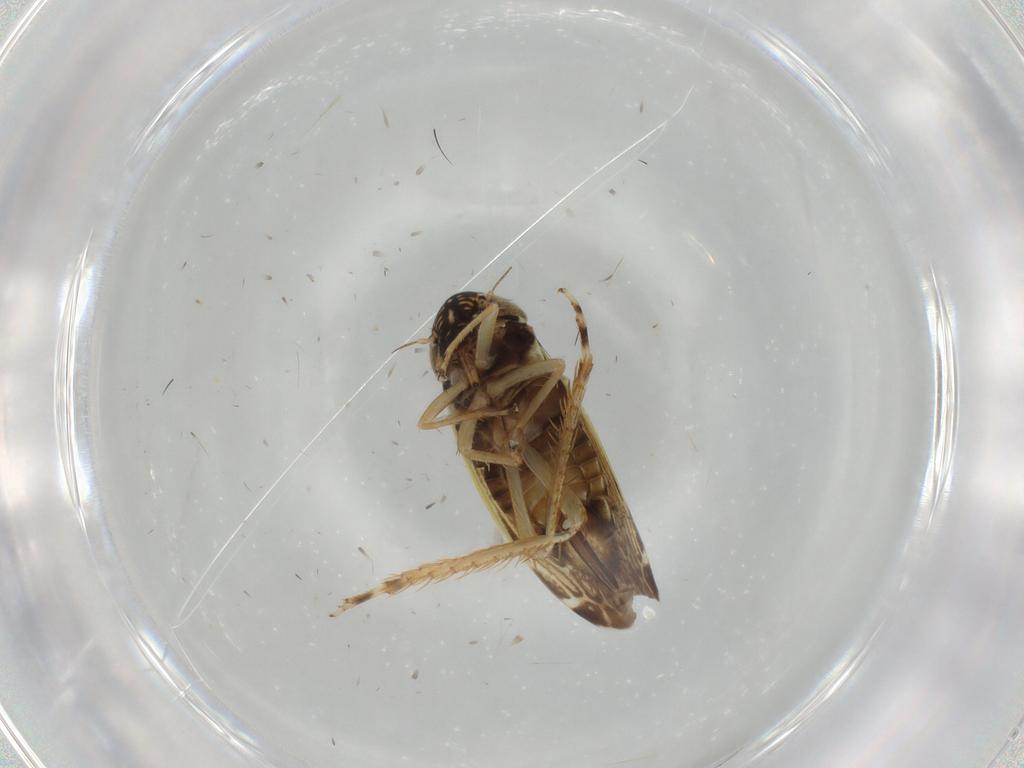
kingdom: Animalia
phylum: Arthropoda
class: Insecta
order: Hemiptera
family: Cicadellidae
